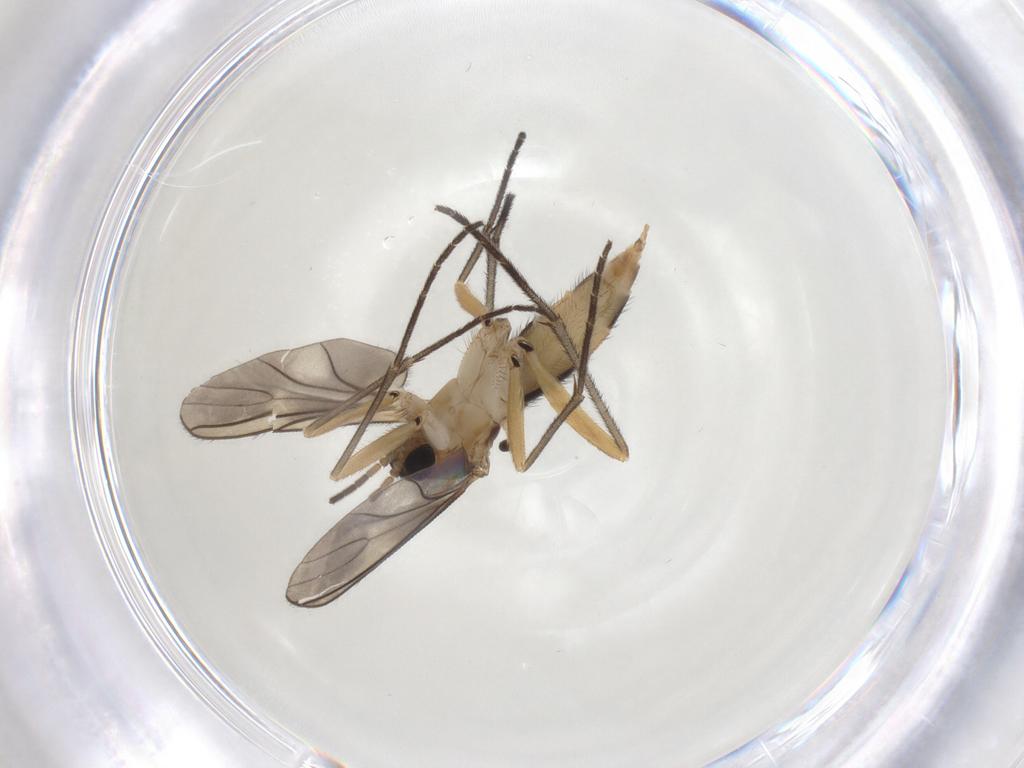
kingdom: Animalia
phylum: Arthropoda
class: Insecta
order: Diptera
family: Sciaridae
